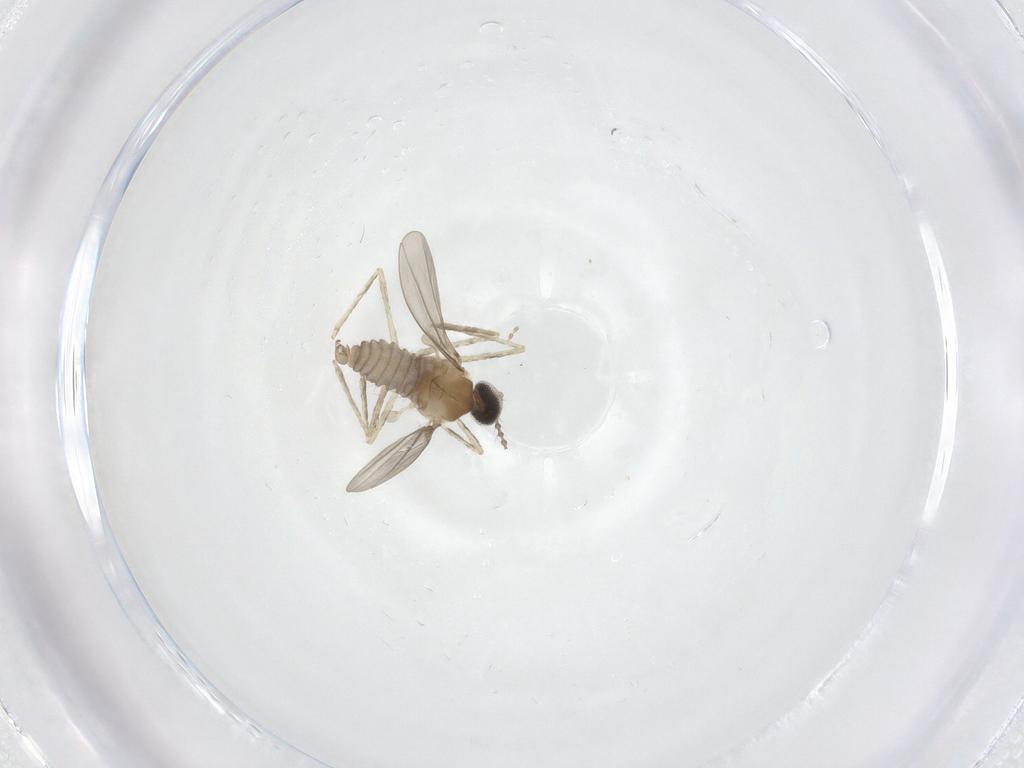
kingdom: Animalia
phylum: Arthropoda
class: Insecta
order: Diptera
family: Cecidomyiidae
